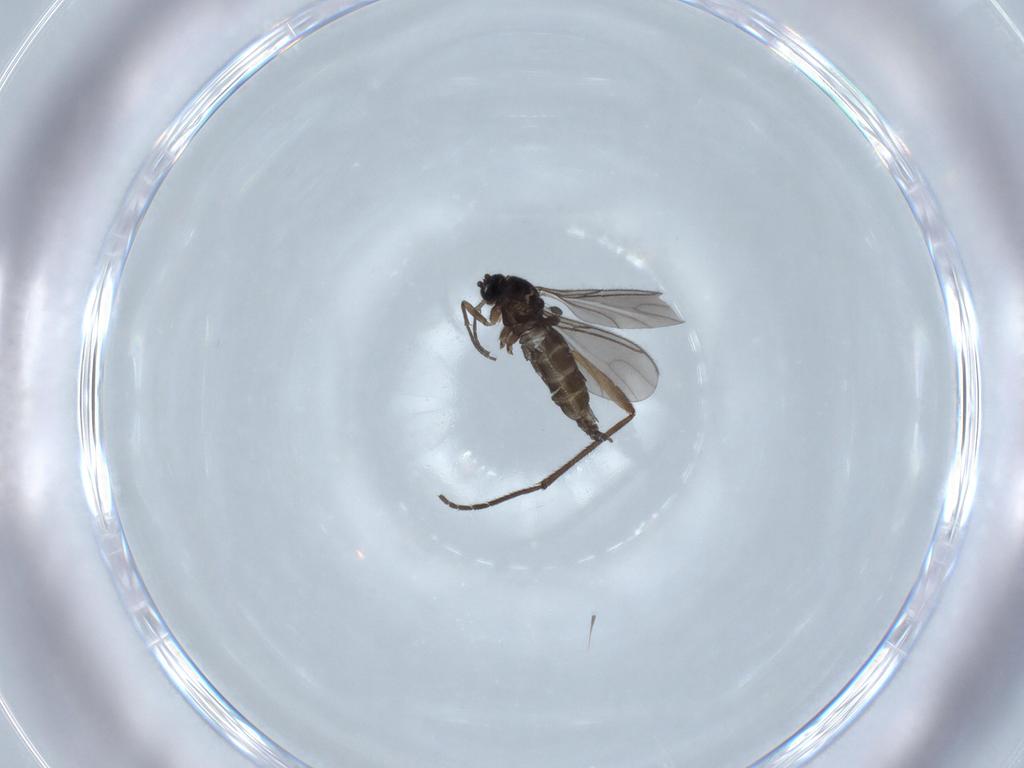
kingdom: Animalia
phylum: Arthropoda
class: Insecta
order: Diptera
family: Sciaridae
